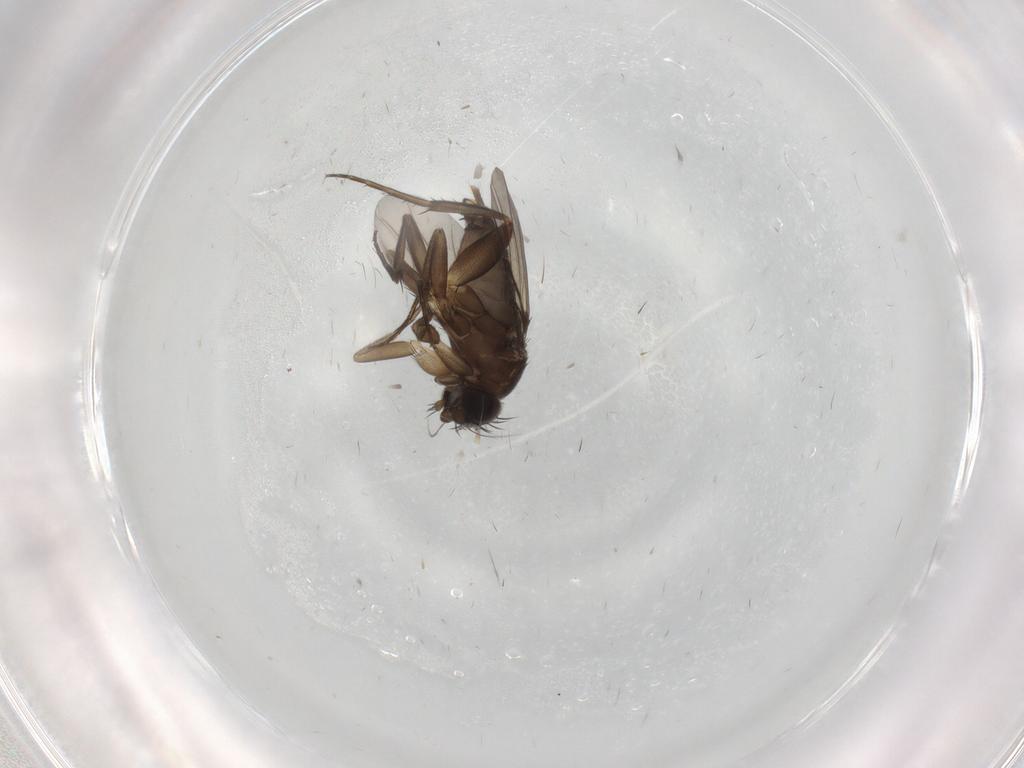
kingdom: Animalia
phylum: Arthropoda
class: Insecta
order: Diptera
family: Phoridae
